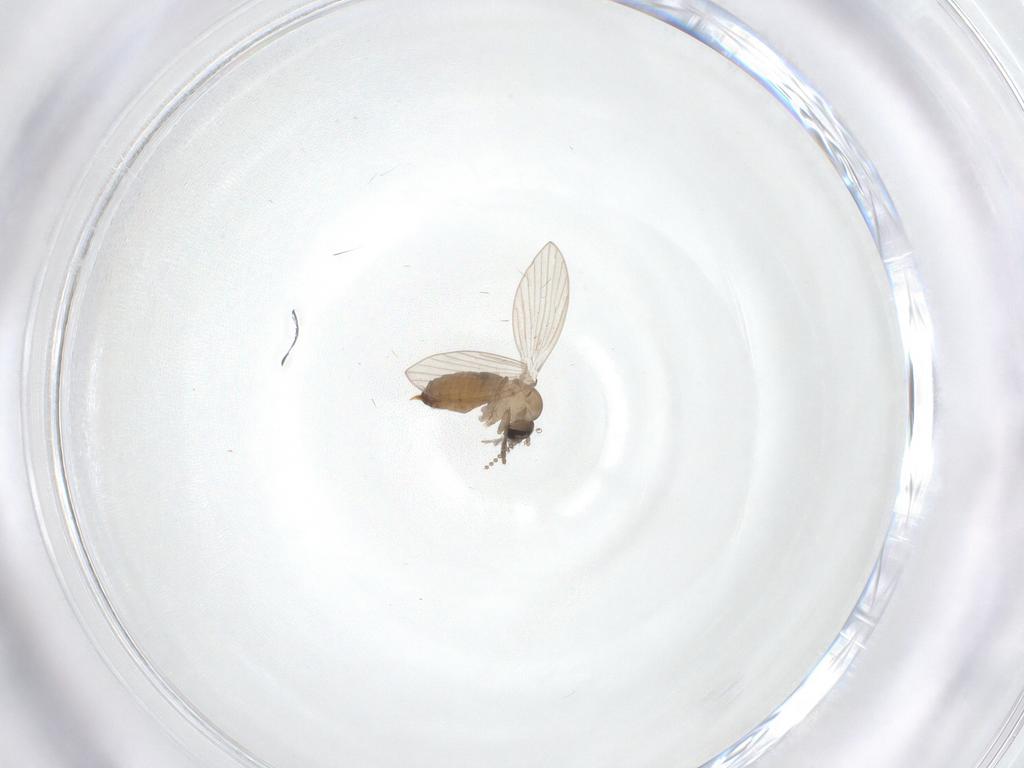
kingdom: Animalia
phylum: Arthropoda
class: Insecta
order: Diptera
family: Psychodidae
